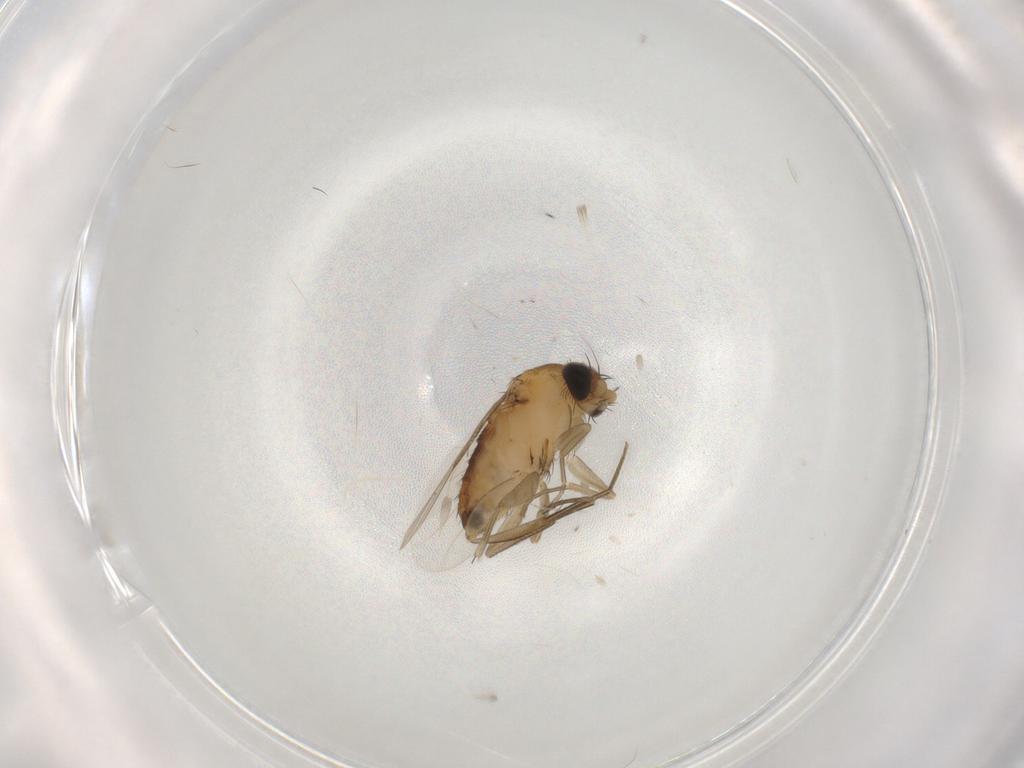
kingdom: Animalia
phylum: Arthropoda
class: Insecta
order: Diptera
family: Phoridae
